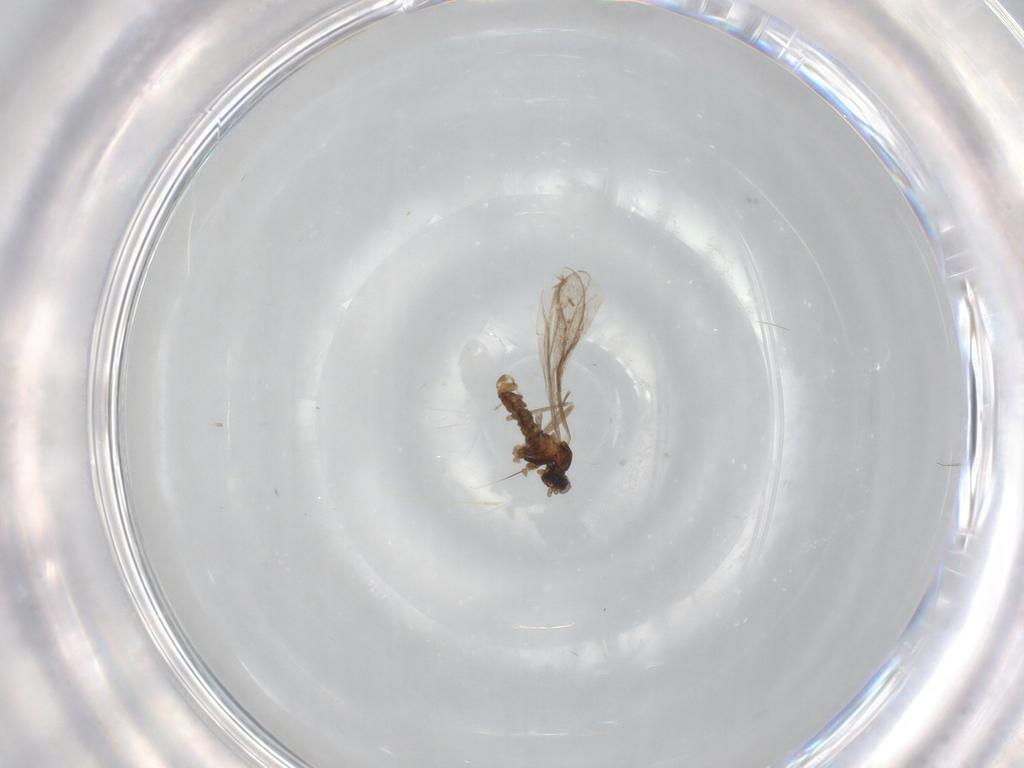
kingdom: Animalia
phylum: Arthropoda
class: Insecta
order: Diptera
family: Cecidomyiidae
